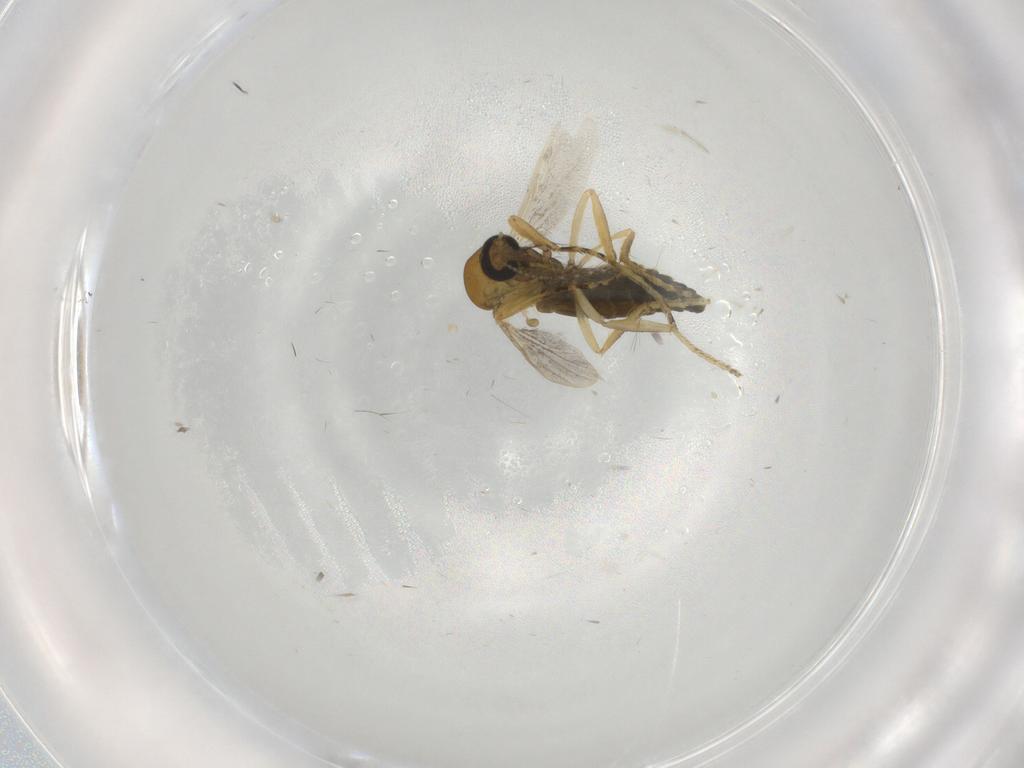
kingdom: Animalia
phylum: Arthropoda
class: Insecta
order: Diptera
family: Ceratopogonidae
